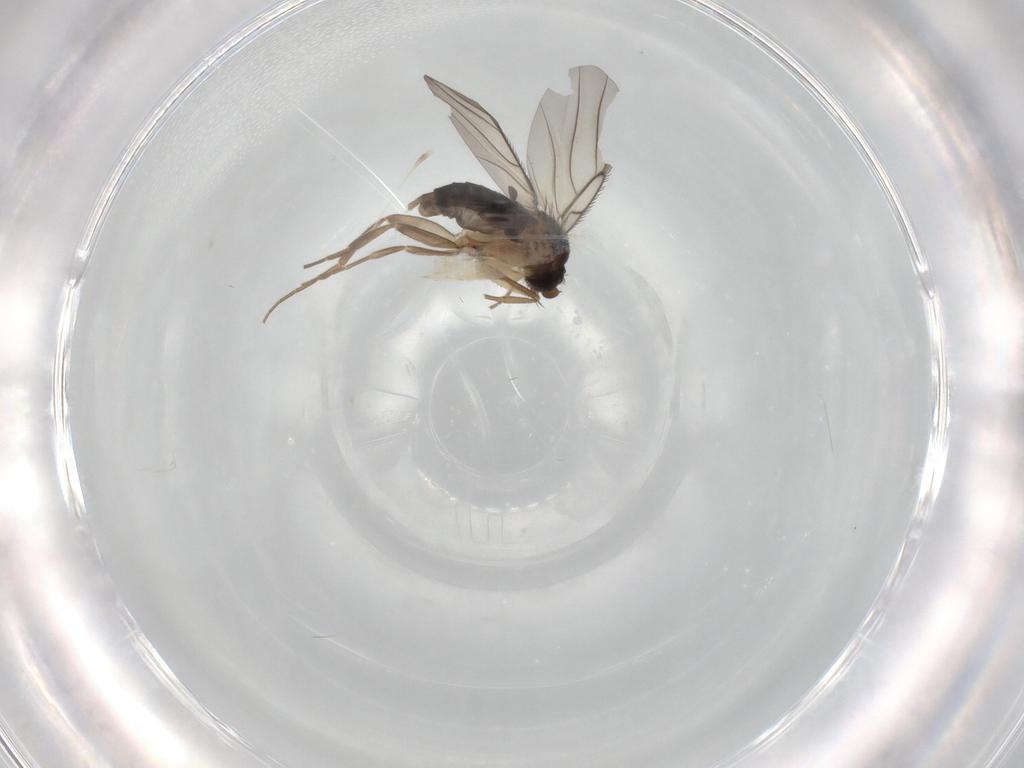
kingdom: Animalia
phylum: Arthropoda
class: Insecta
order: Diptera
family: Phoridae
